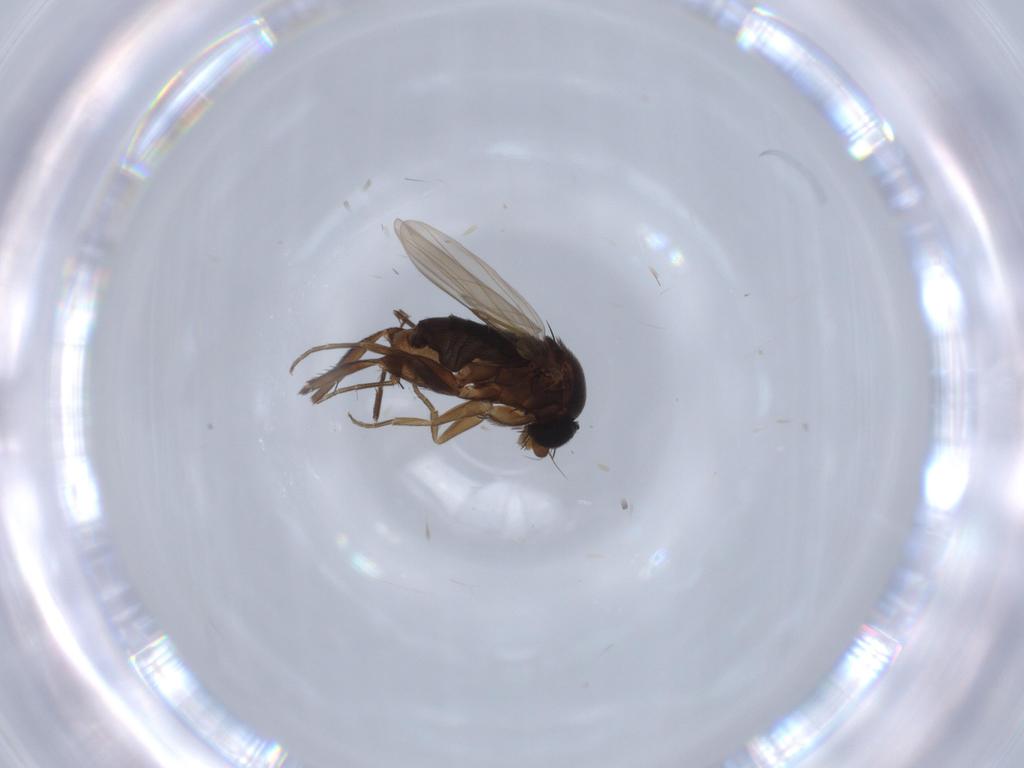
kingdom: Animalia
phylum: Arthropoda
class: Insecta
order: Diptera
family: Phoridae
